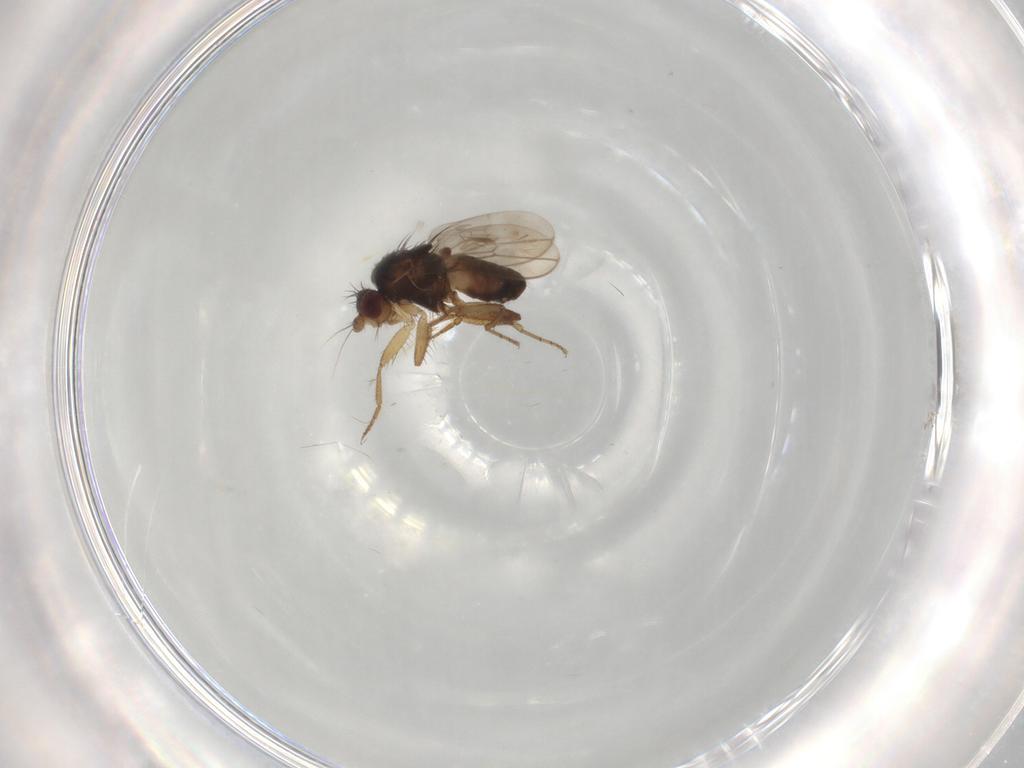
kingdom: Animalia
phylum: Arthropoda
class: Insecta
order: Diptera
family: Sphaeroceridae
